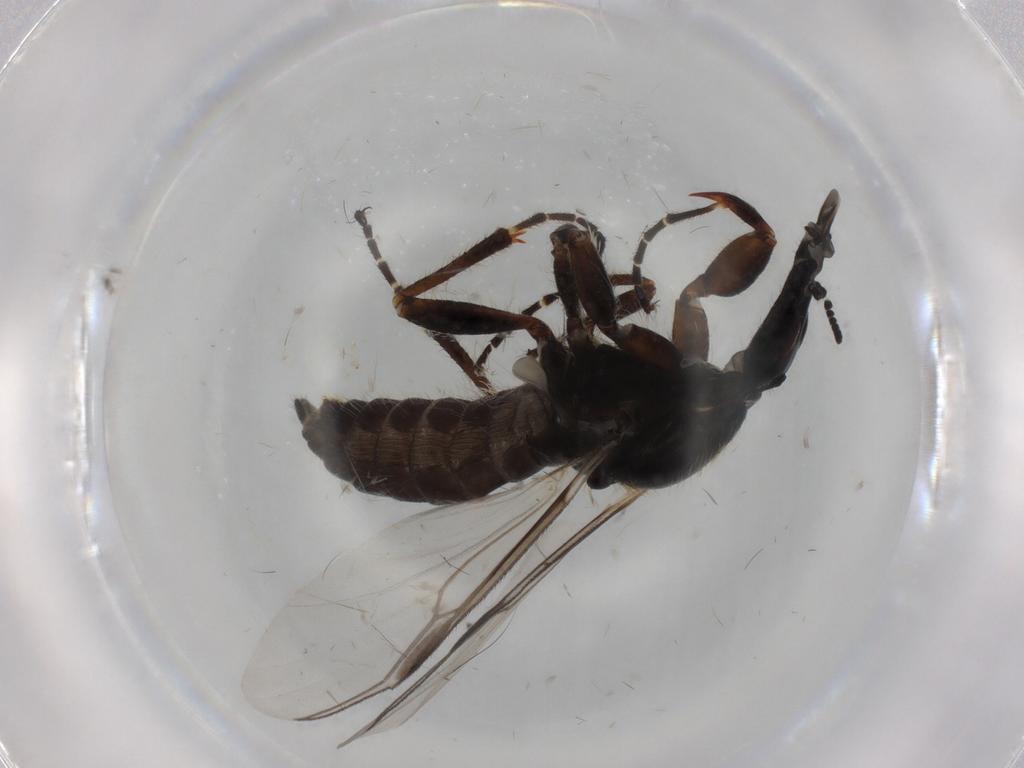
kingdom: Animalia
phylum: Arthropoda
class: Insecta
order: Diptera
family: Bibionidae
